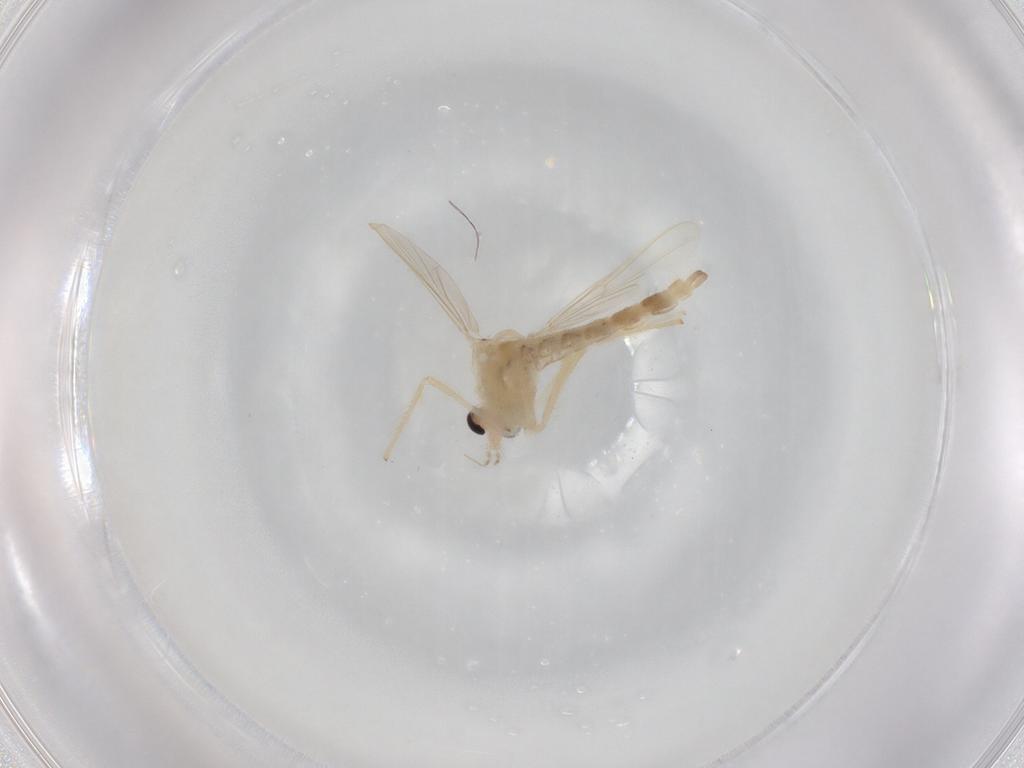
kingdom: Animalia
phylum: Arthropoda
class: Insecta
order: Diptera
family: Chironomidae
